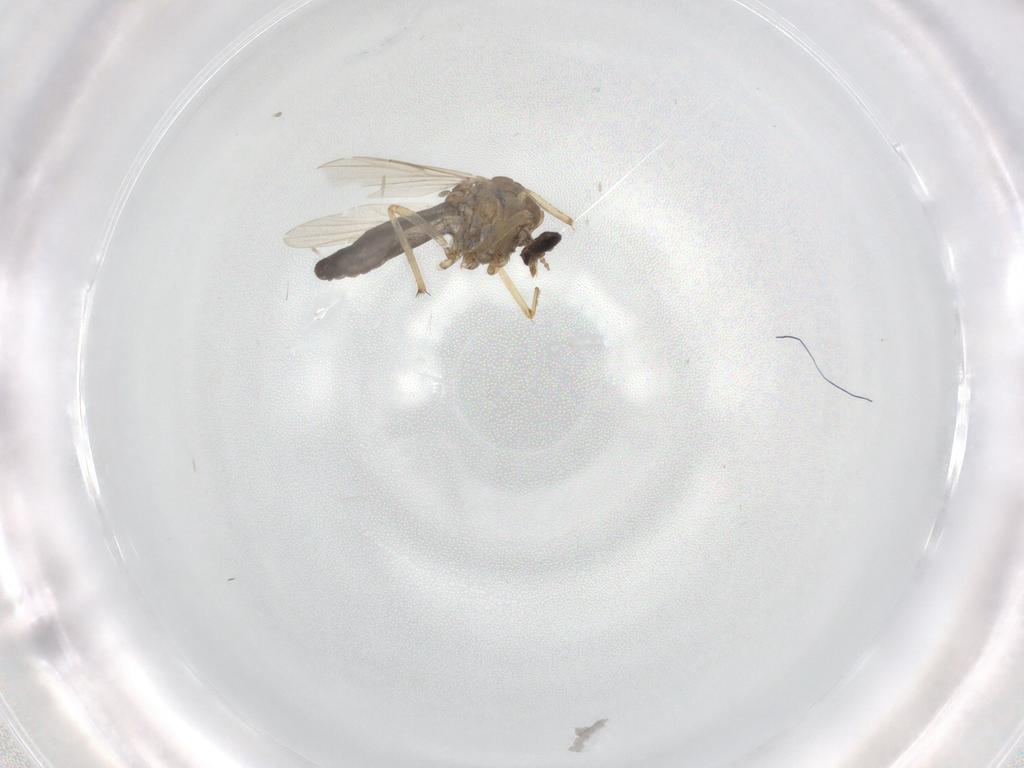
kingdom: Animalia
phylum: Arthropoda
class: Insecta
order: Diptera
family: Ceratopogonidae
